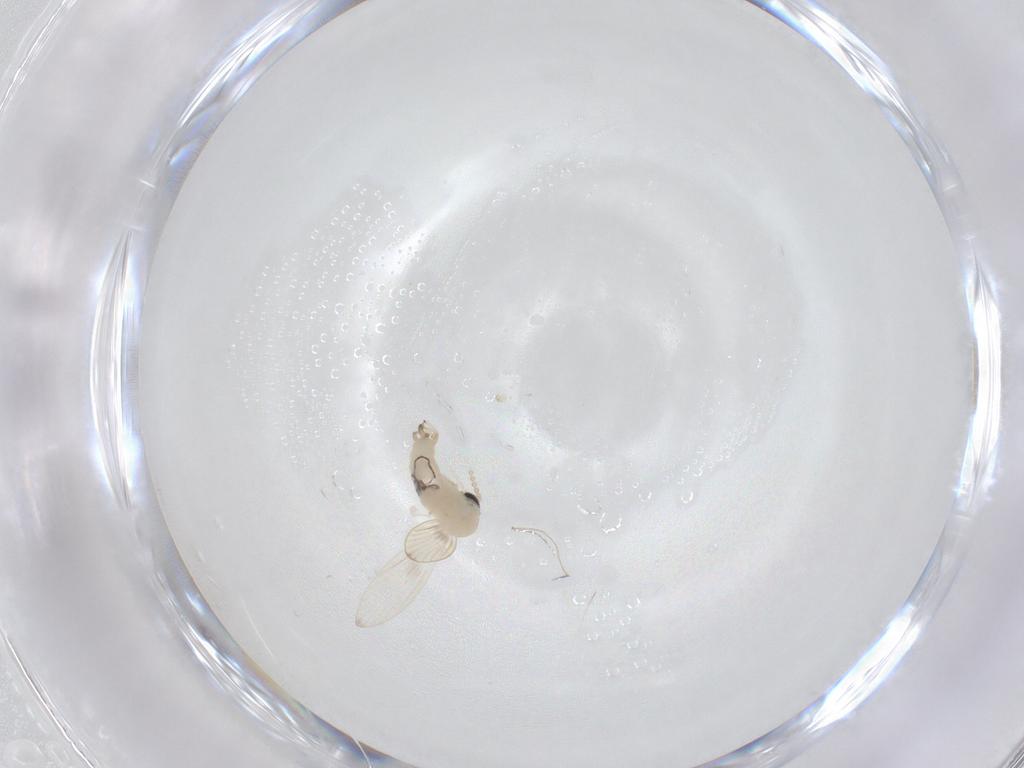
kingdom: Animalia
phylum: Arthropoda
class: Insecta
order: Diptera
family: Psychodidae
